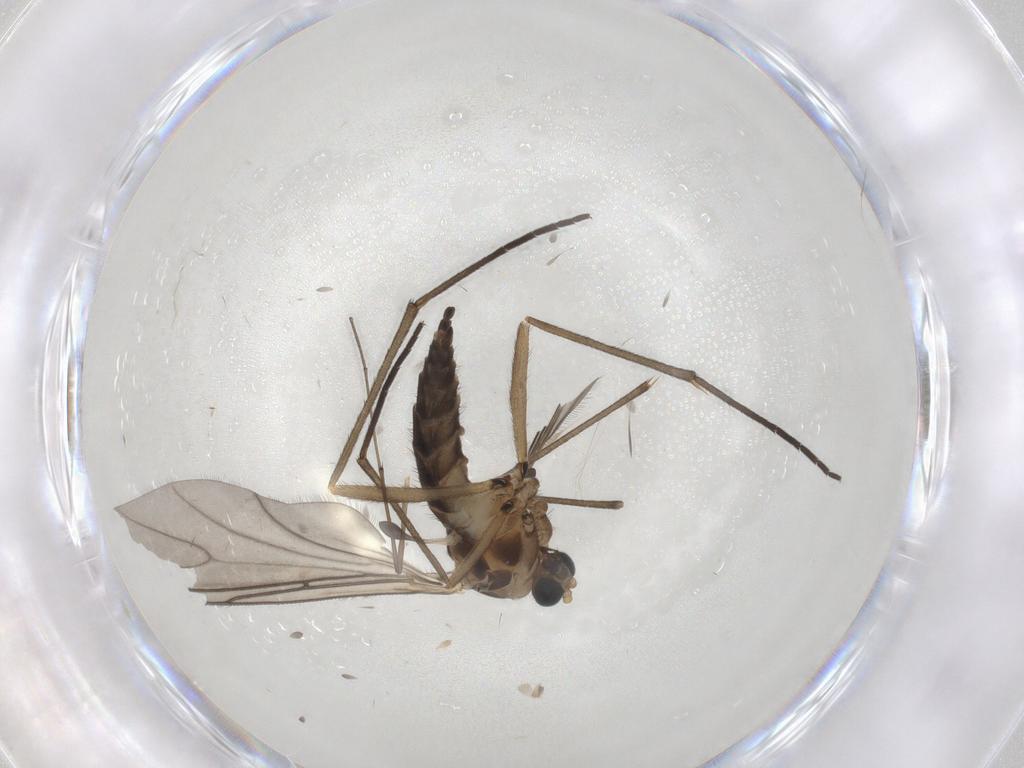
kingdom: Animalia
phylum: Arthropoda
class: Insecta
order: Diptera
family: Sciaridae
